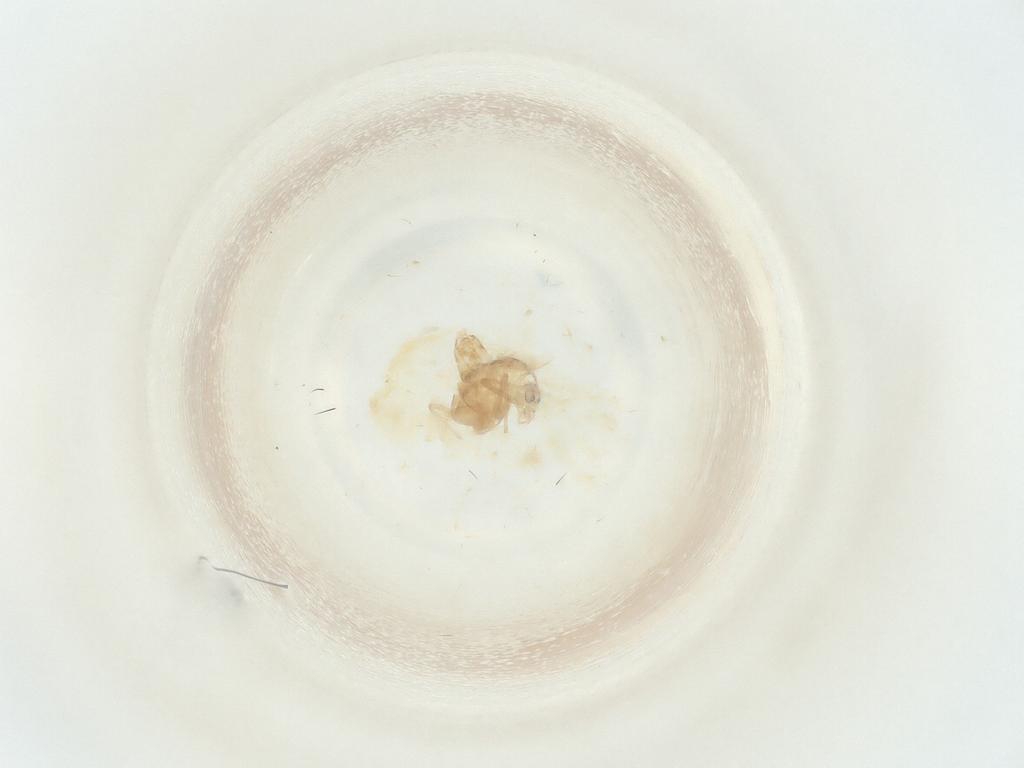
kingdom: Animalia
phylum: Arthropoda
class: Insecta
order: Diptera
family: Chironomidae
